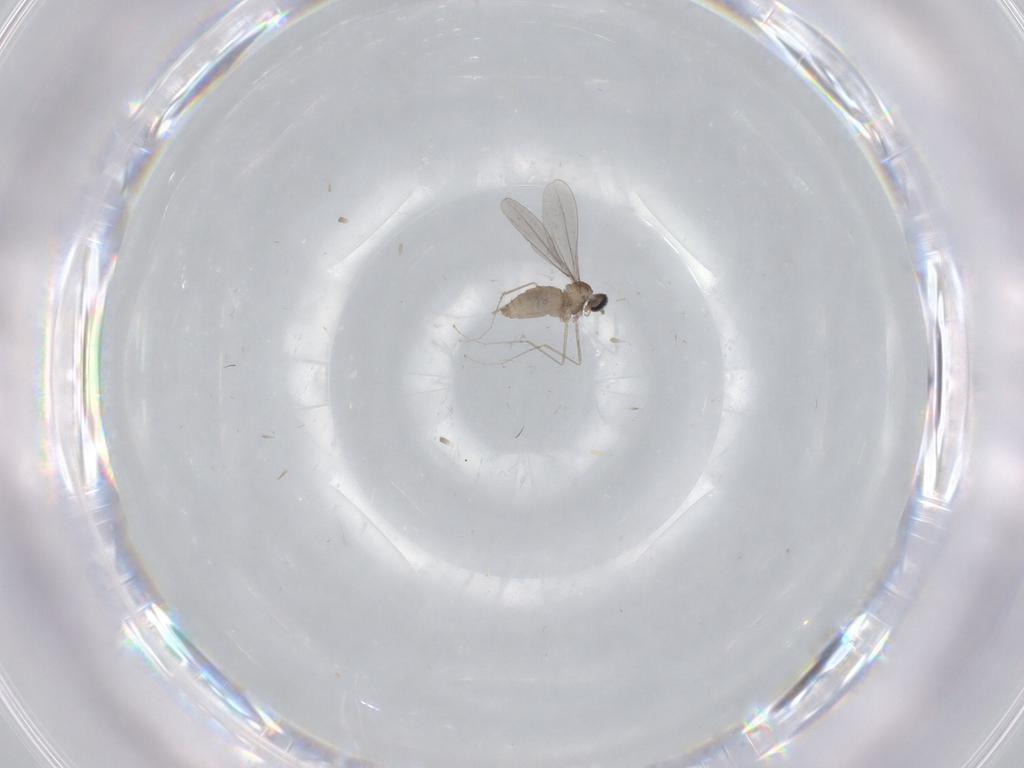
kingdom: Animalia
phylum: Arthropoda
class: Insecta
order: Diptera
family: Cecidomyiidae
